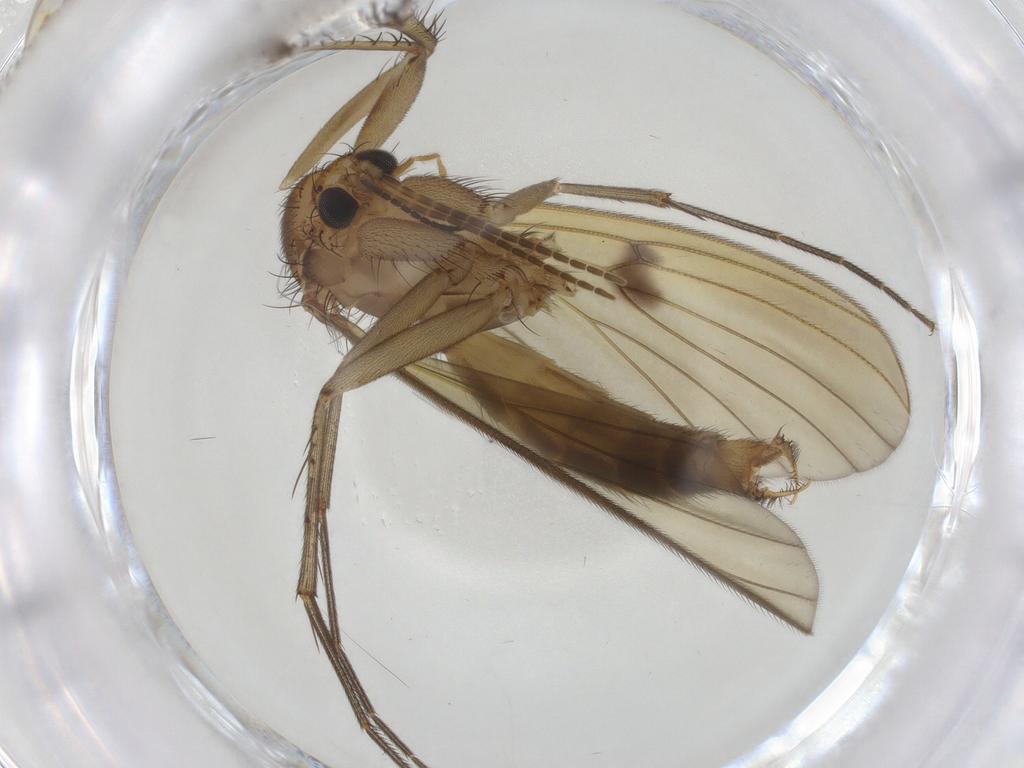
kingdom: Animalia
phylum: Arthropoda
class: Insecta
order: Diptera
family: Mycetophilidae
